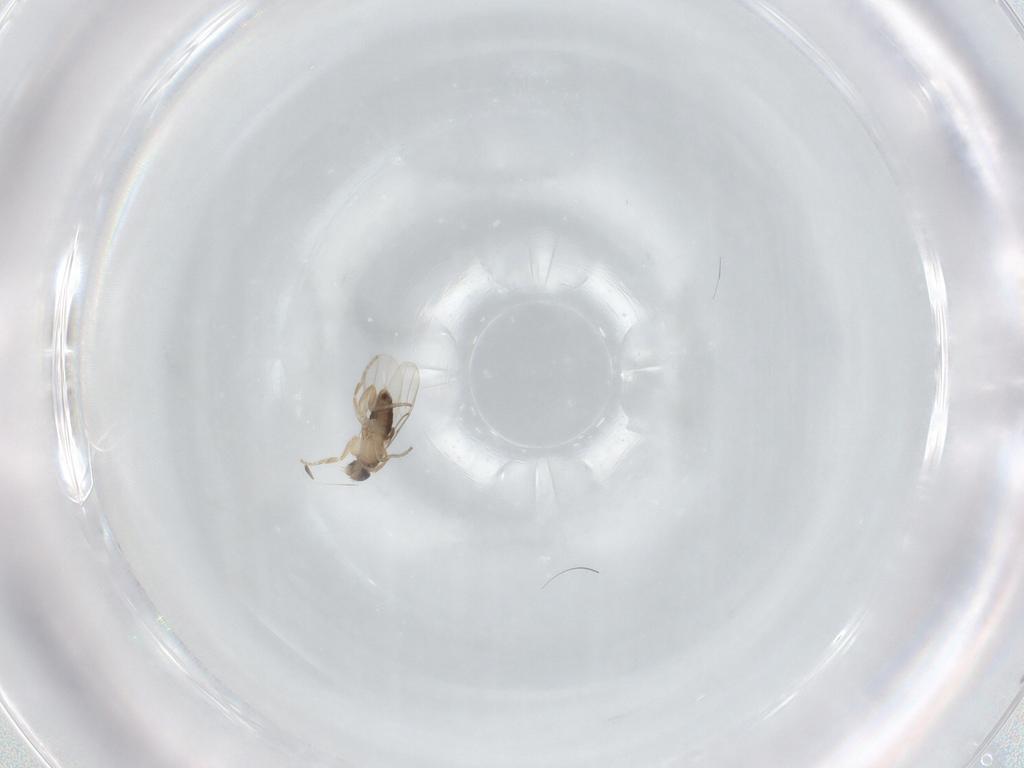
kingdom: Animalia
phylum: Arthropoda
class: Insecta
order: Diptera
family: Phoridae
